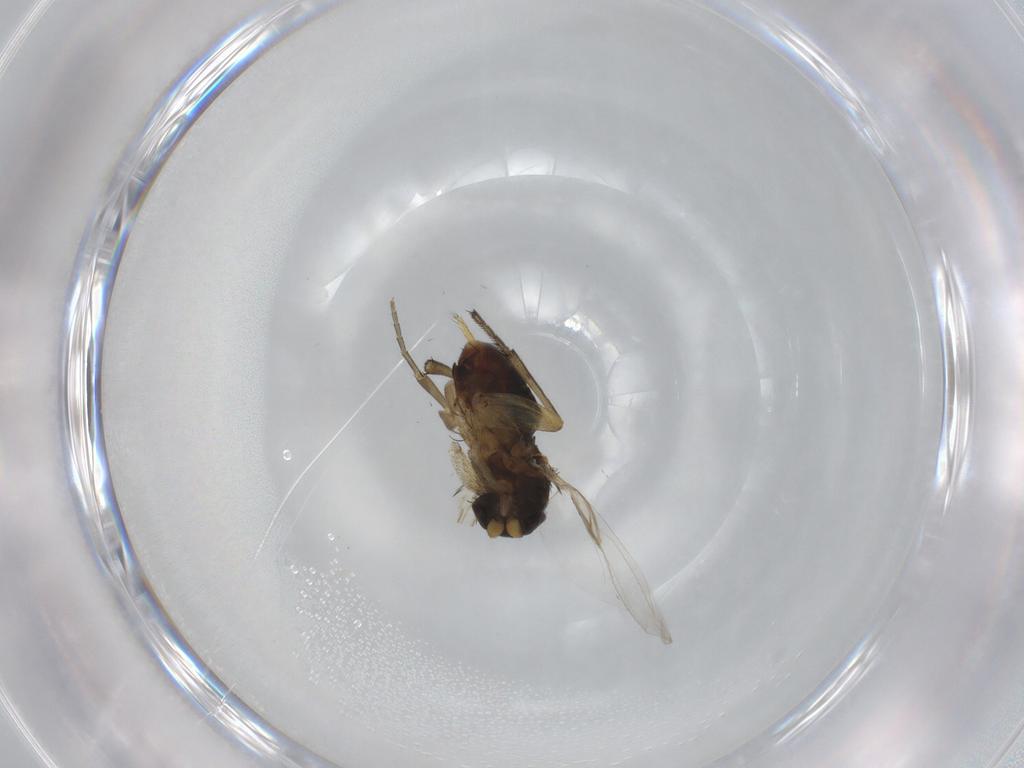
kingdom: Animalia
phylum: Arthropoda
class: Insecta
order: Diptera
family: Phoridae
